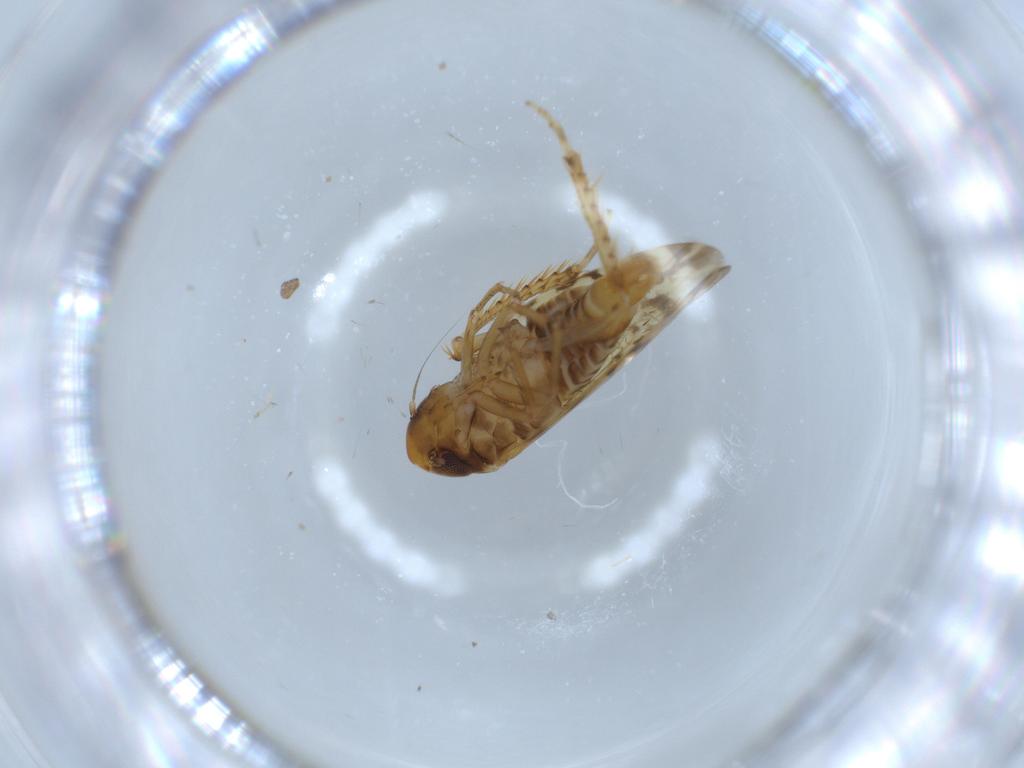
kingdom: Animalia
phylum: Arthropoda
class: Insecta
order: Hemiptera
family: Cicadellidae
